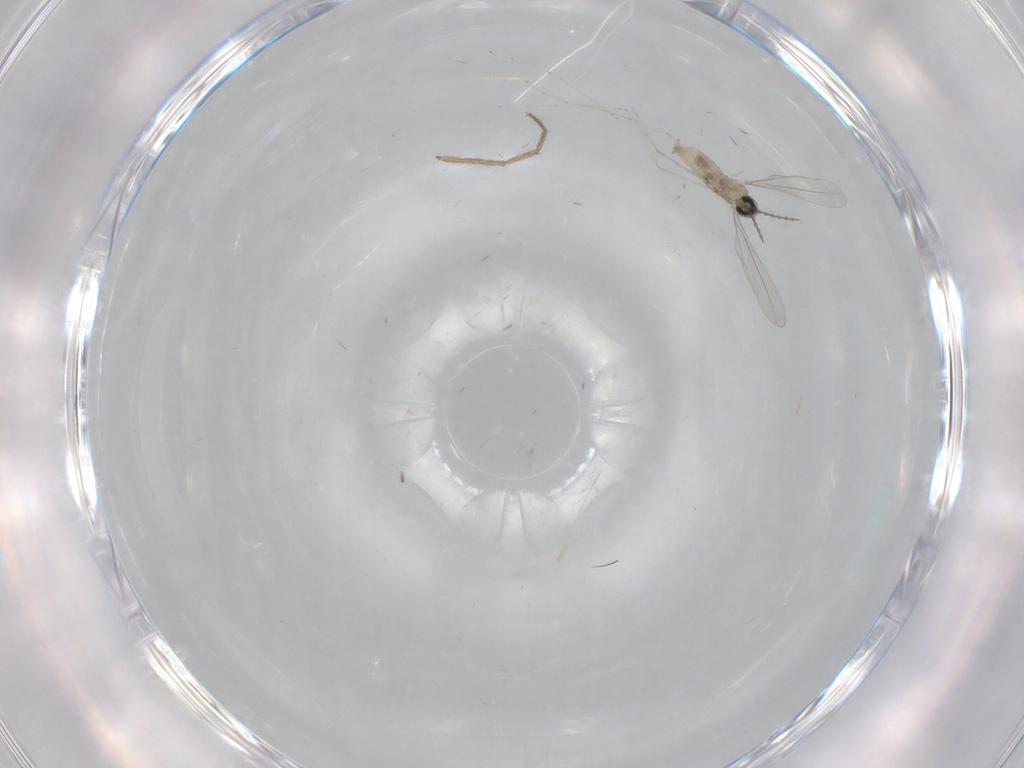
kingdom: Animalia
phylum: Arthropoda
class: Insecta
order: Diptera
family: Cecidomyiidae
